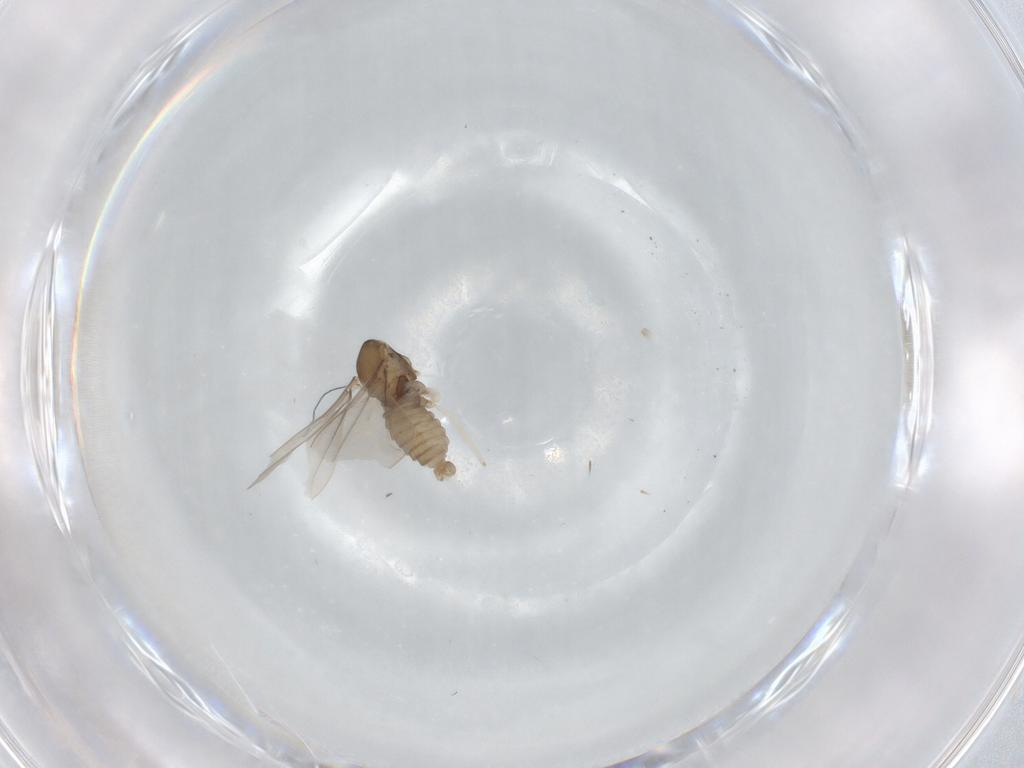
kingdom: Animalia
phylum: Arthropoda
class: Insecta
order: Diptera
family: Cecidomyiidae
